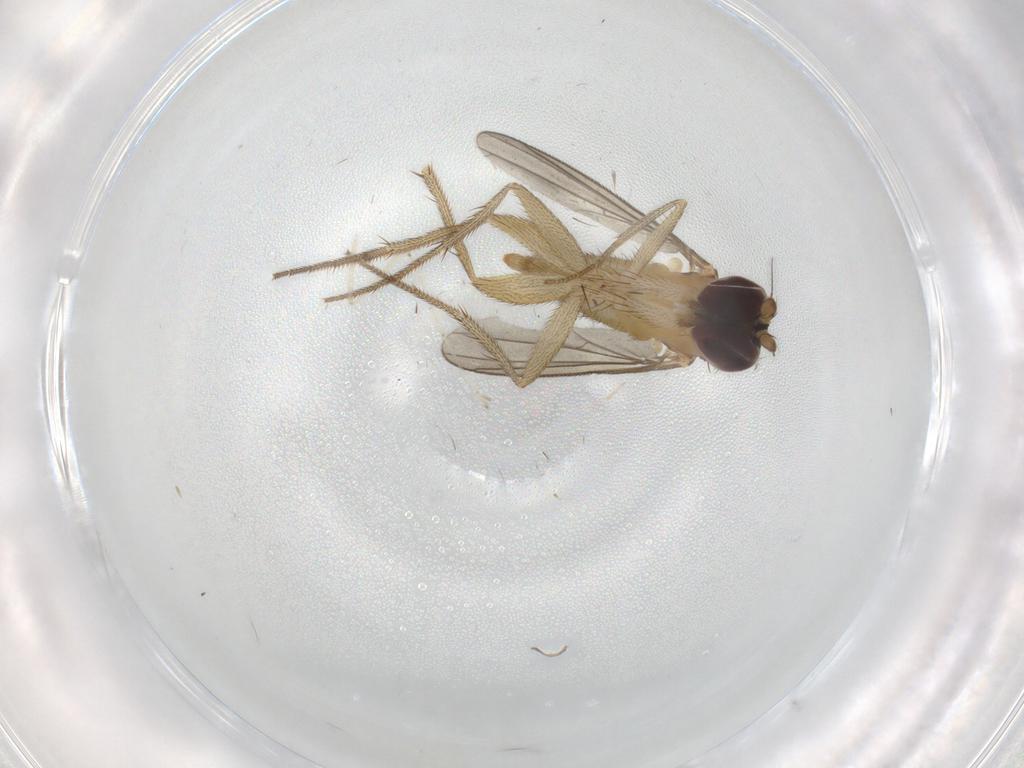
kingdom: Animalia
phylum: Arthropoda
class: Insecta
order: Diptera
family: Dolichopodidae
